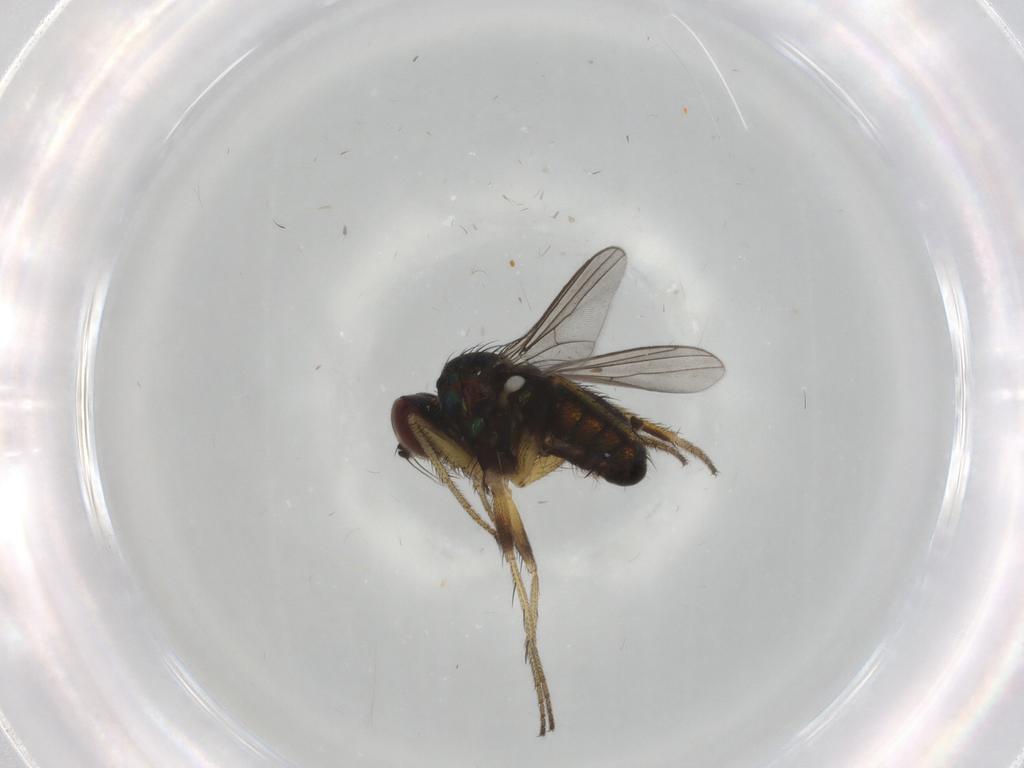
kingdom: Animalia
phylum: Arthropoda
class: Insecta
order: Diptera
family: Dolichopodidae
